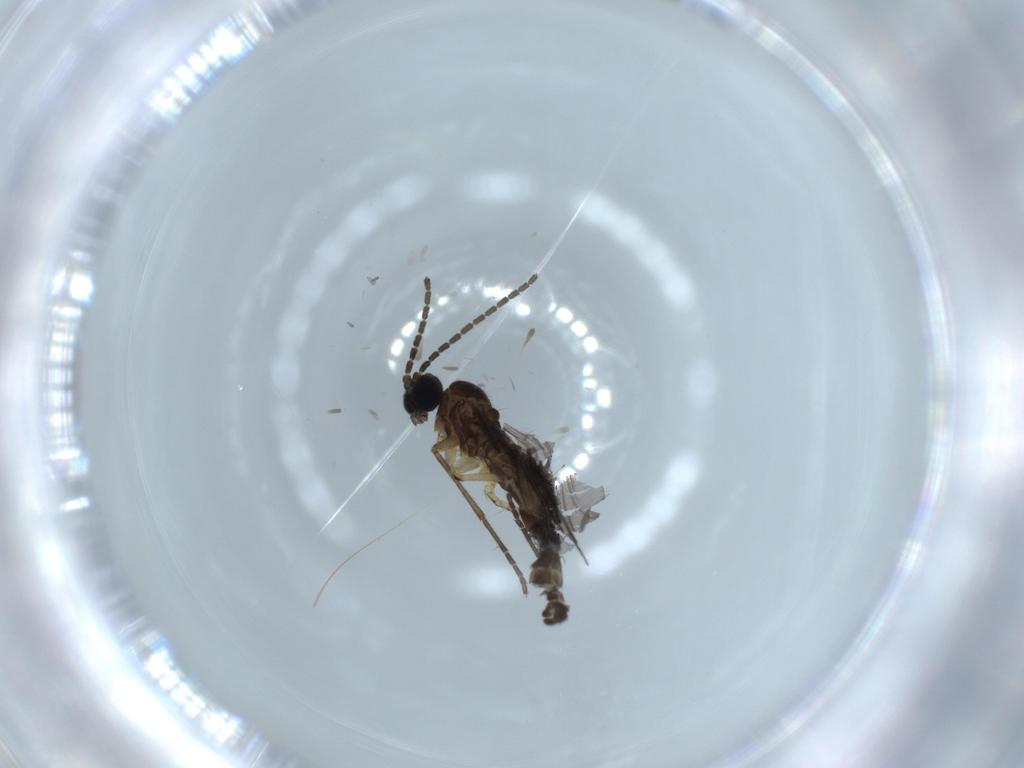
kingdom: Animalia
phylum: Arthropoda
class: Insecta
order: Diptera
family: Sciaridae
